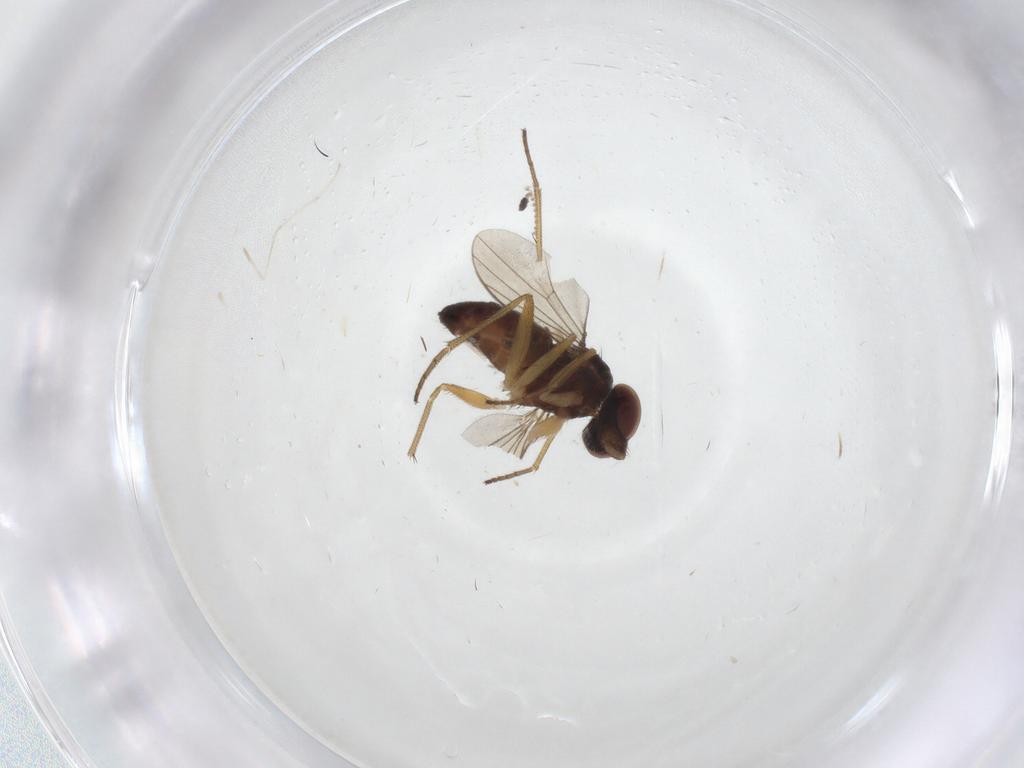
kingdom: Animalia
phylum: Arthropoda
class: Insecta
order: Diptera
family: Dolichopodidae
